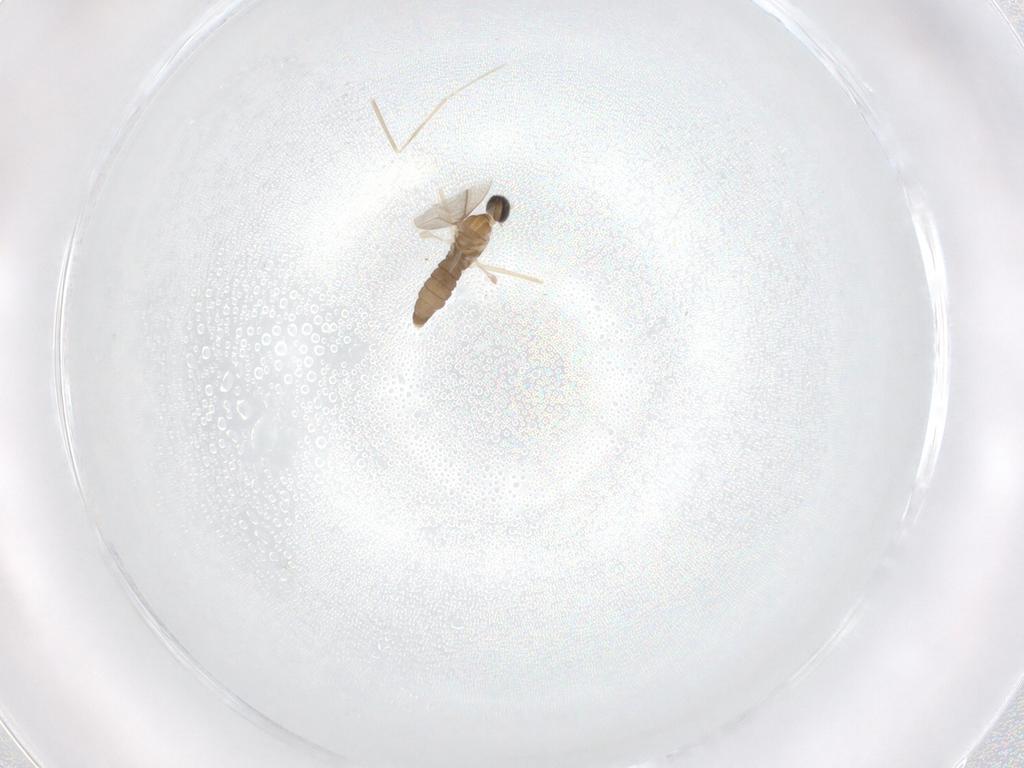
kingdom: Animalia
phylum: Arthropoda
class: Insecta
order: Diptera
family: Cecidomyiidae
